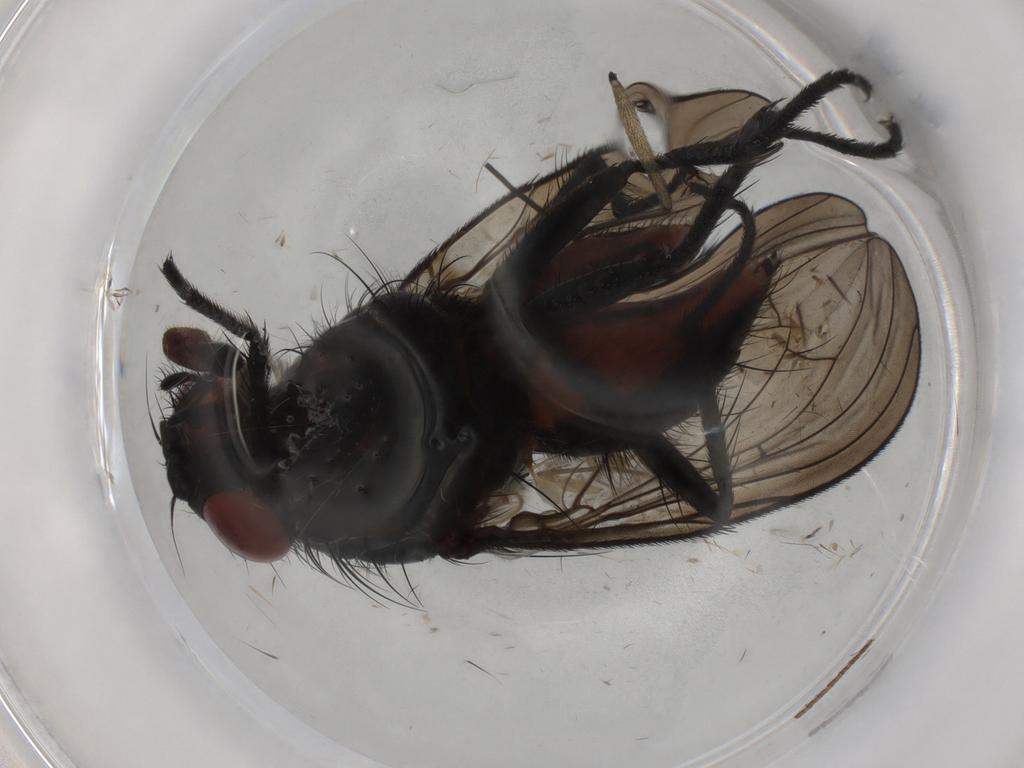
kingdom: Animalia
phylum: Arthropoda
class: Insecta
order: Diptera
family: Anthomyiidae
